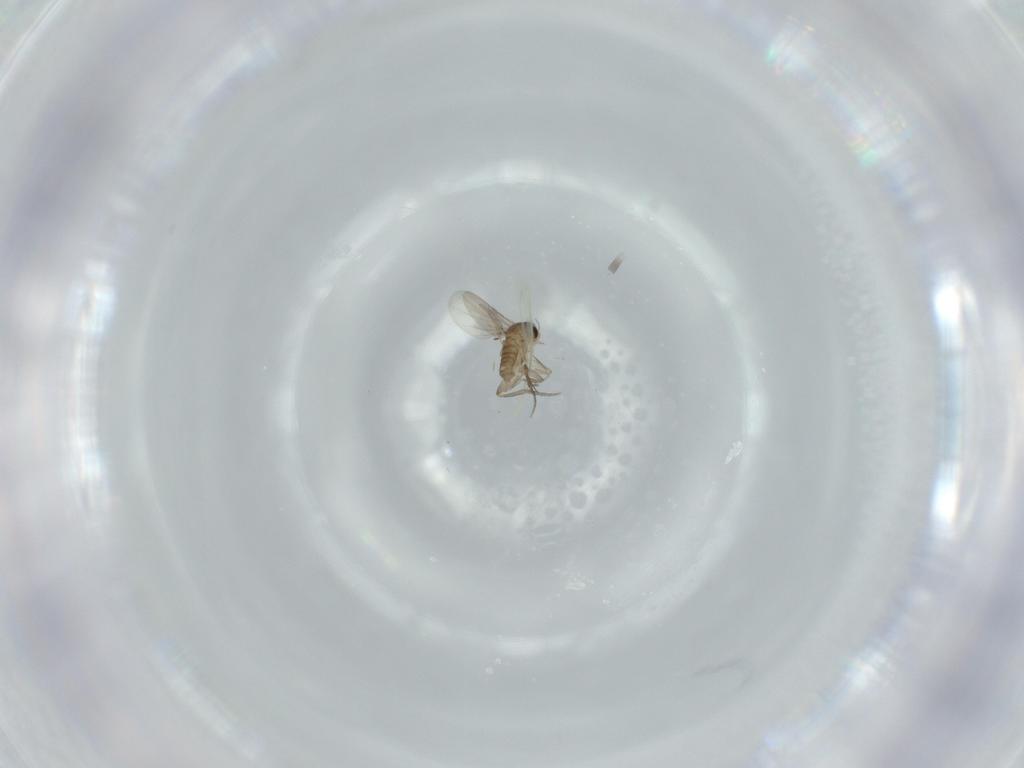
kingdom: Animalia
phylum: Arthropoda
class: Insecta
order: Diptera
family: Phoridae
